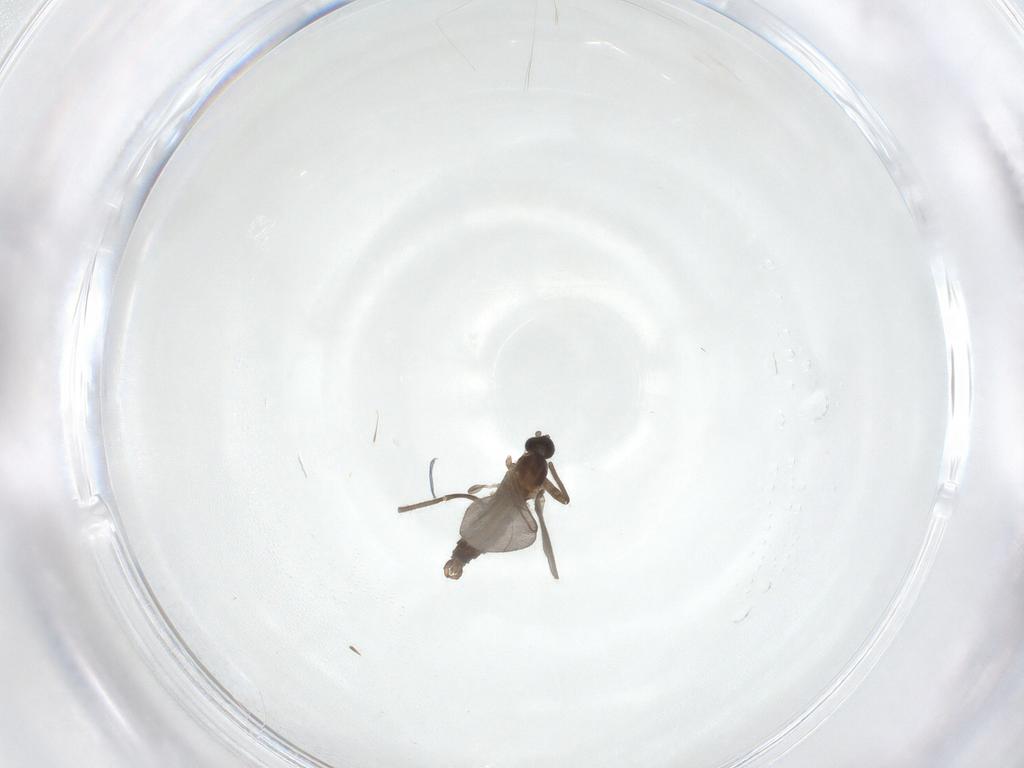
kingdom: Animalia
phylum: Arthropoda
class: Insecta
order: Diptera
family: Cecidomyiidae
